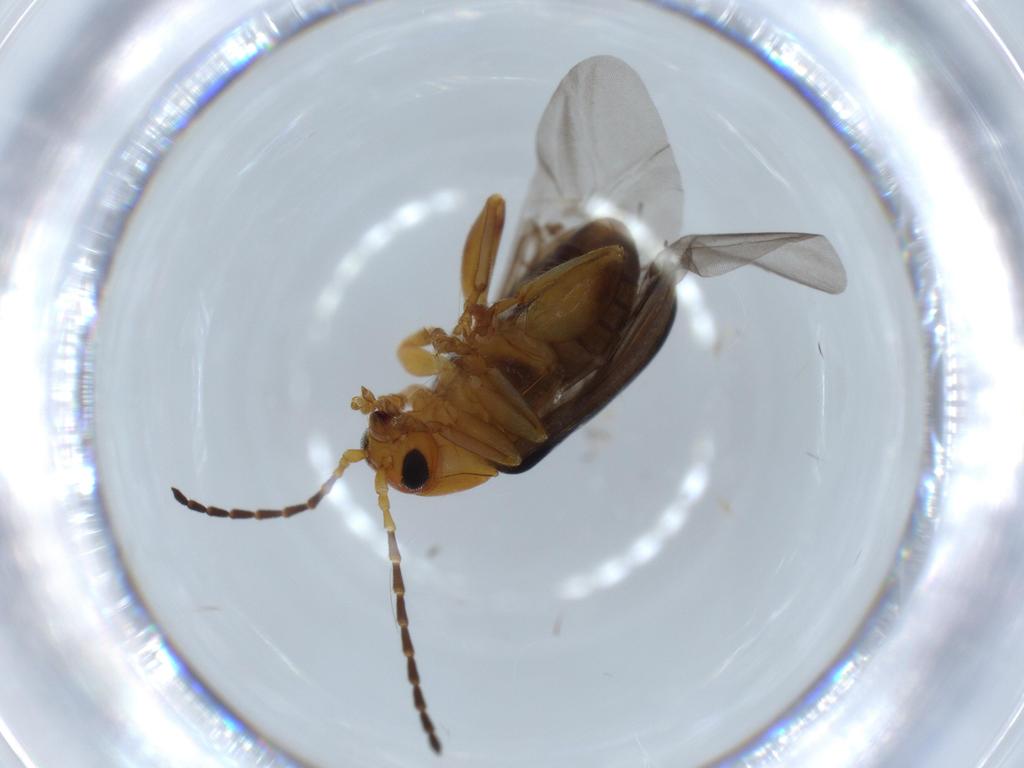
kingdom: Animalia
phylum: Arthropoda
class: Insecta
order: Coleoptera
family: Chrysomelidae
